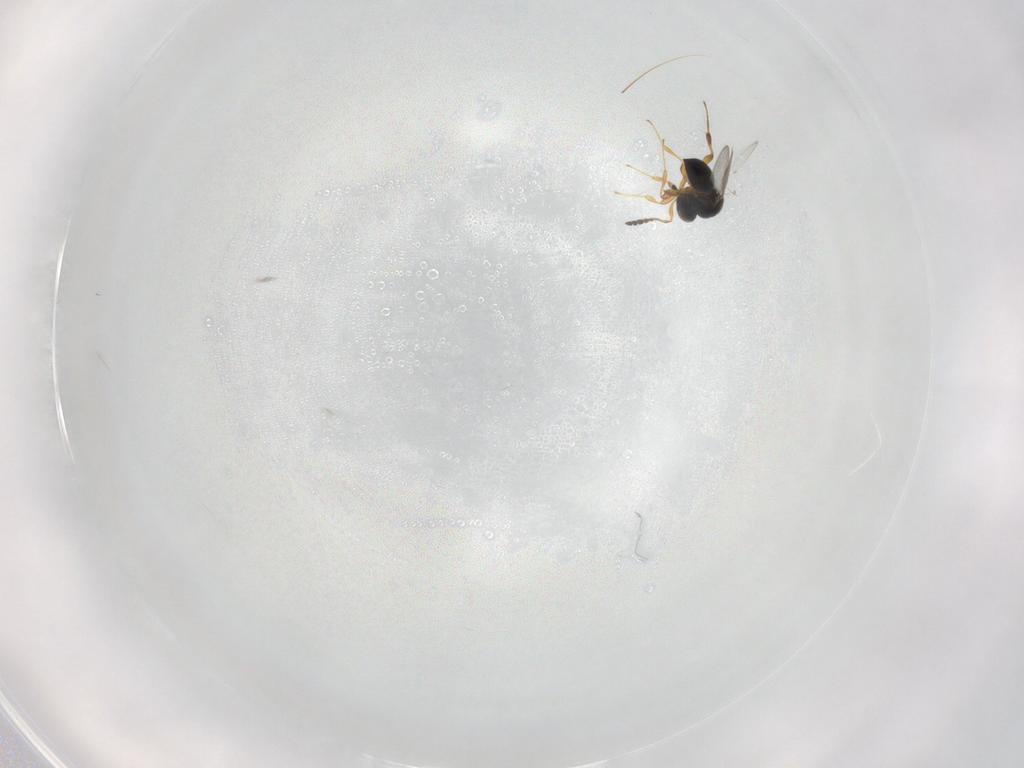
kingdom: Animalia
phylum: Arthropoda
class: Insecta
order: Hymenoptera
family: Platygastridae
